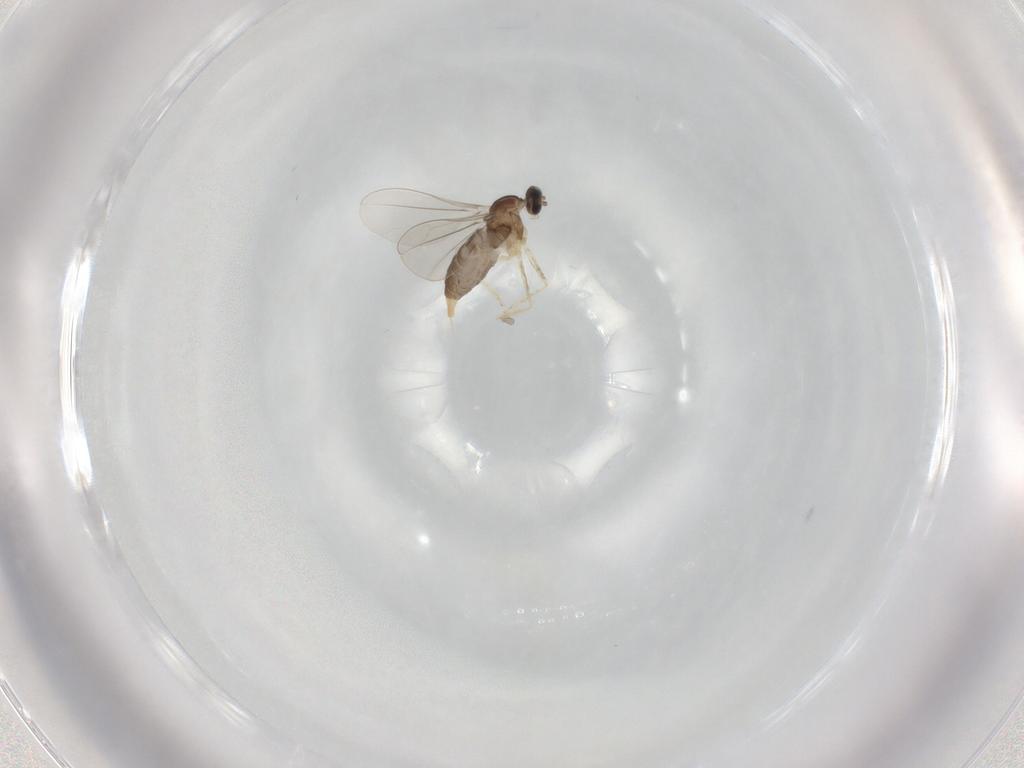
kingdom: Animalia
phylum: Arthropoda
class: Insecta
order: Diptera
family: Cecidomyiidae
